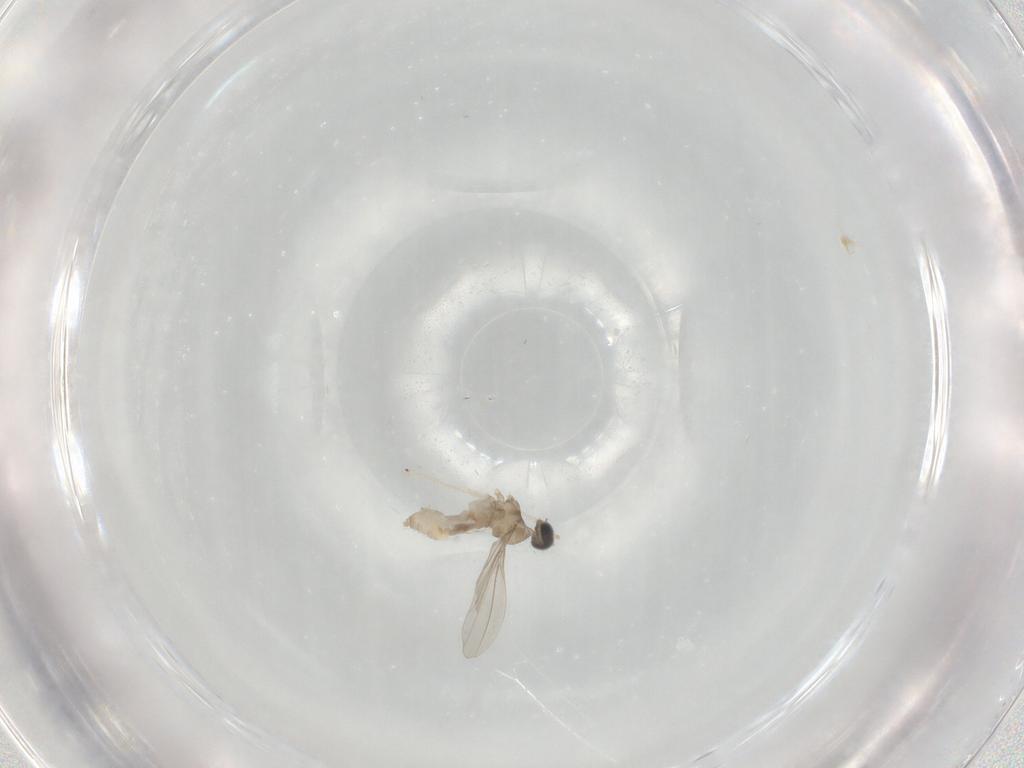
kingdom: Animalia
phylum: Arthropoda
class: Insecta
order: Diptera
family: Cecidomyiidae
